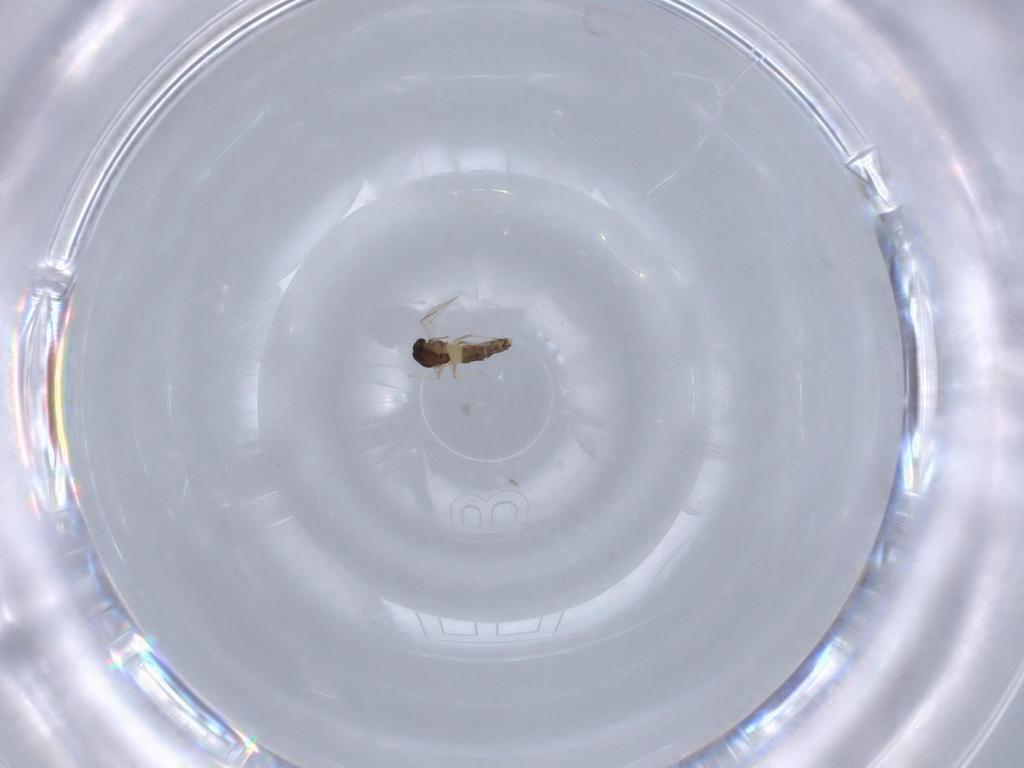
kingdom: Animalia
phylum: Arthropoda
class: Insecta
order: Diptera
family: Chironomidae
